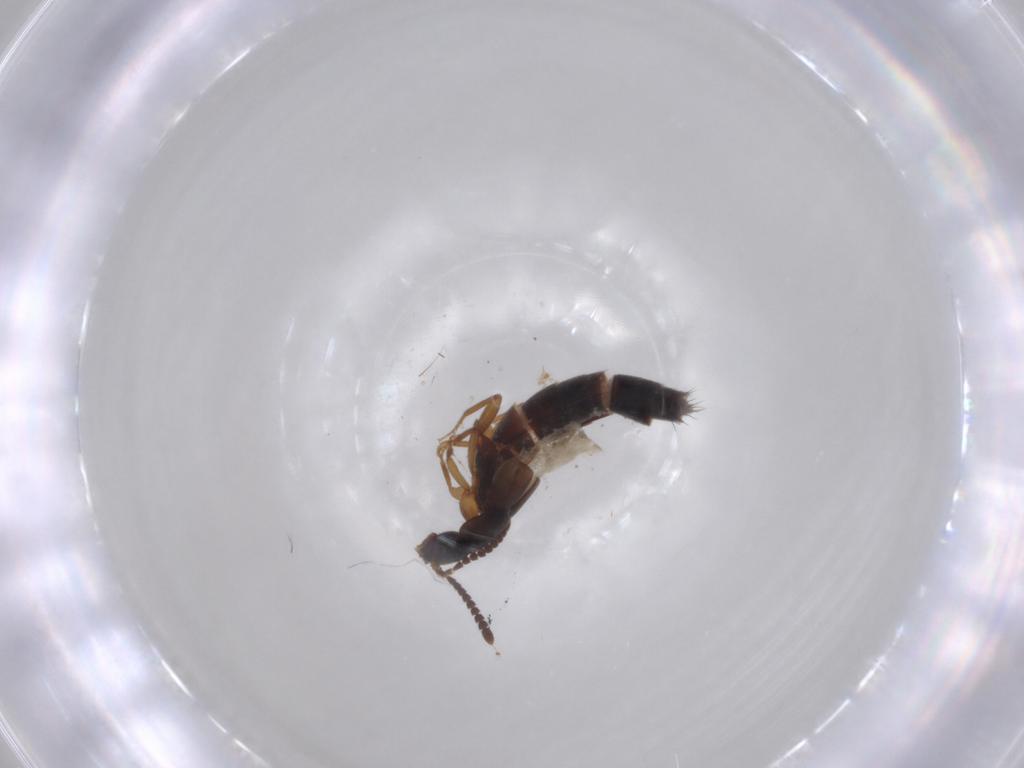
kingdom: Animalia
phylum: Arthropoda
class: Insecta
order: Coleoptera
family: Staphylinidae
